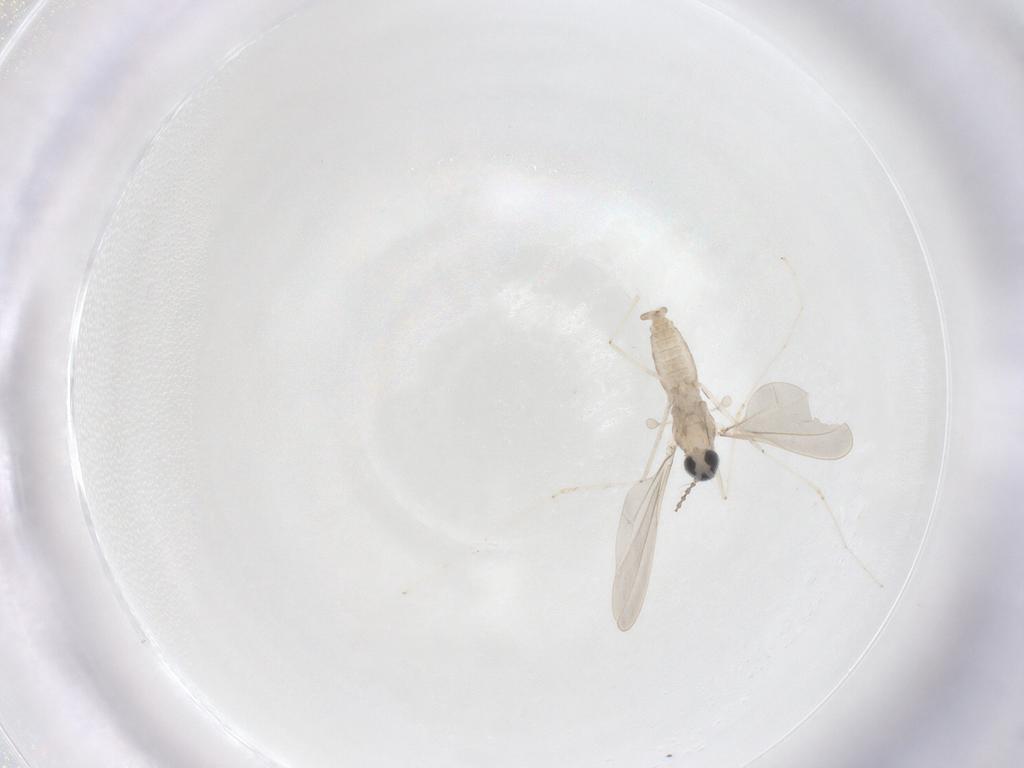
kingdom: Animalia
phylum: Arthropoda
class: Insecta
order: Diptera
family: Cecidomyiidae
